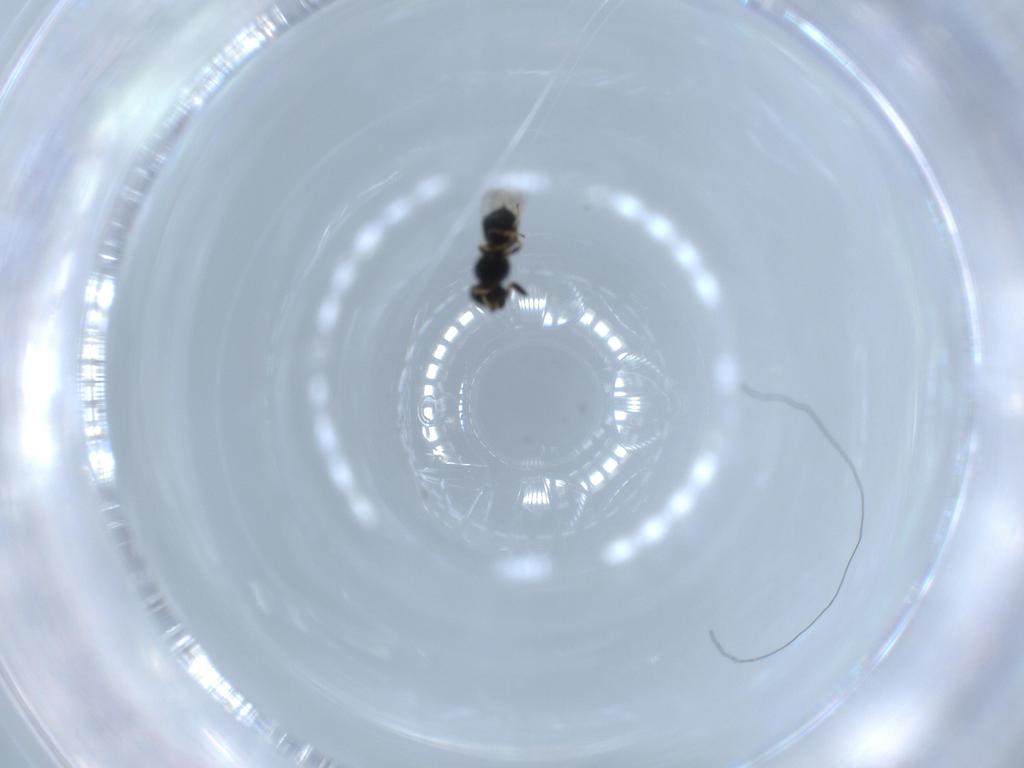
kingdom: Animalia
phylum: Arthropoda
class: Insecta
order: Hymenoptera
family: Scelionidae
